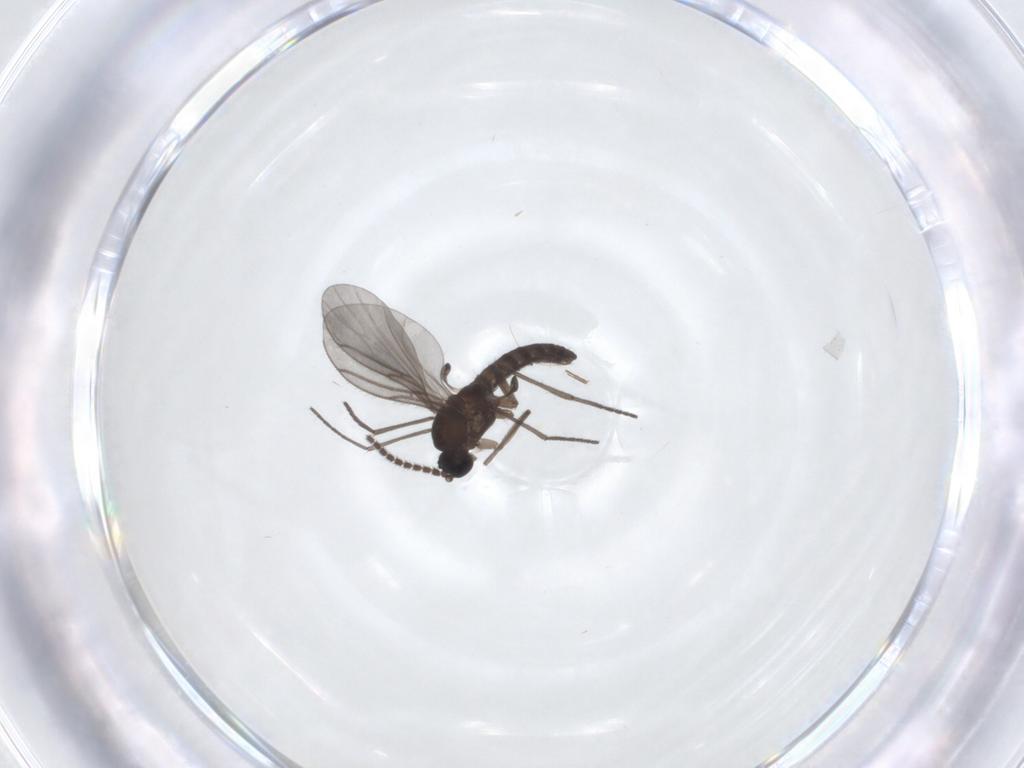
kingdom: Animalia
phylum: Arthropoda
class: Insecta
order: Diptera
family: Sciaridae
